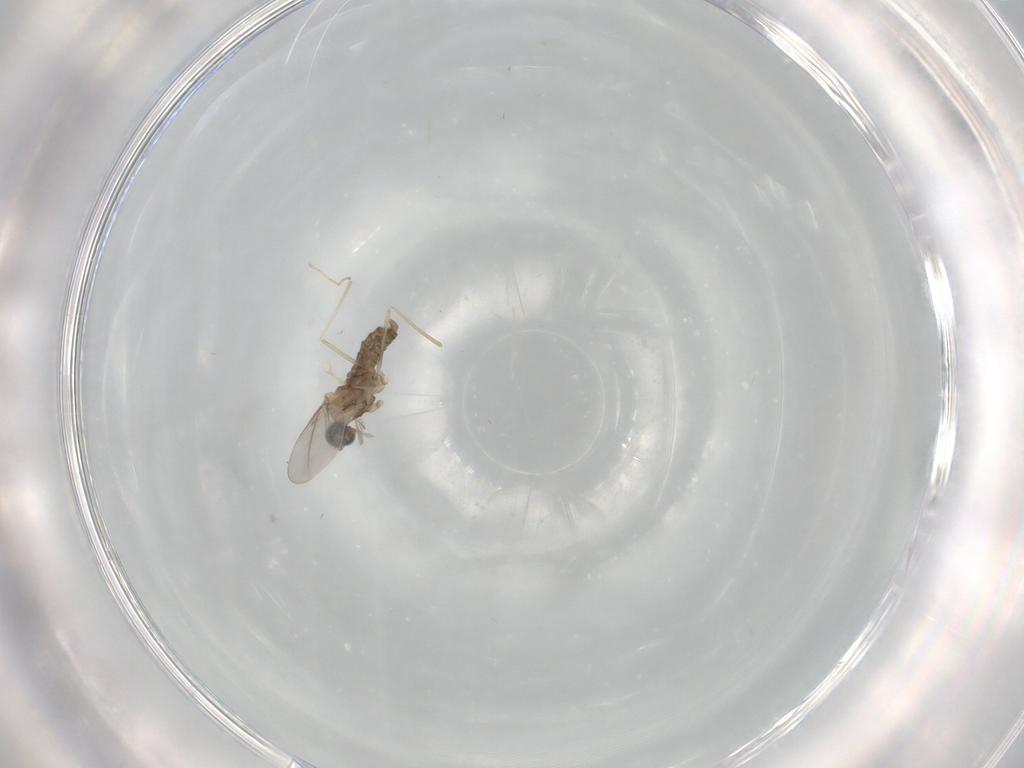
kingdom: Animalia
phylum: Arthropoda
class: Insecta
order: Diptera
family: Cecidomyiidae
